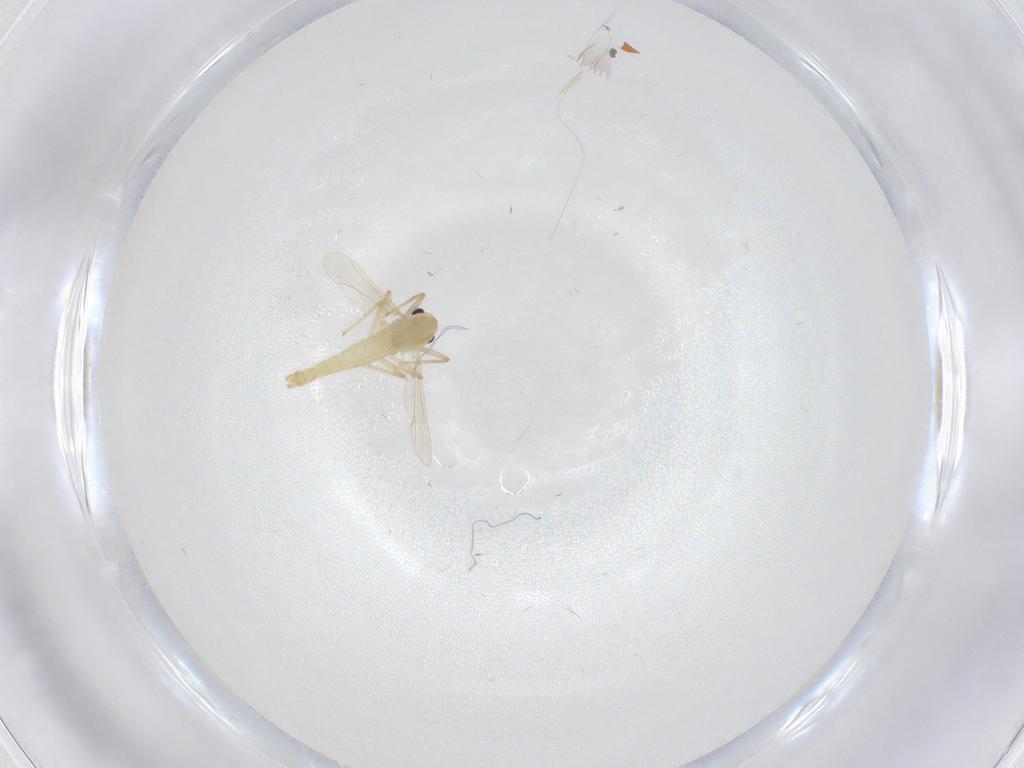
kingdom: Animalia
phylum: Arthropoda
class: Insecta
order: Diptera
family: Chironomidae
